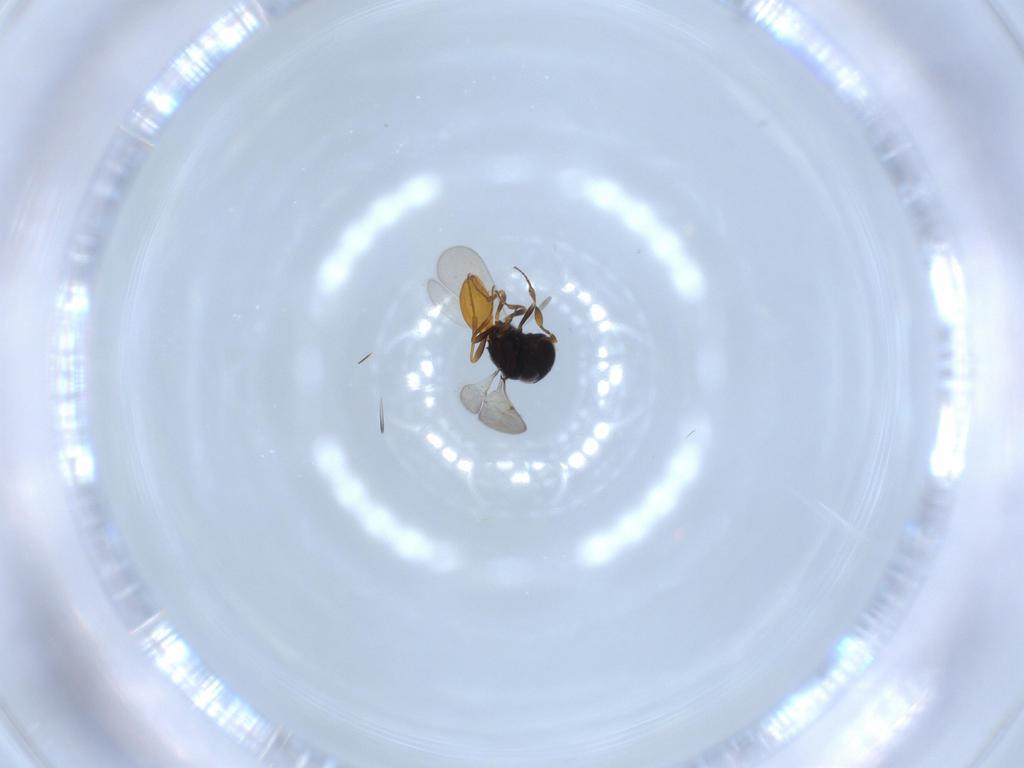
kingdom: Animalia
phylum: Arthropoda
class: Insecta
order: Hymenoptera
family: Scelionidae
